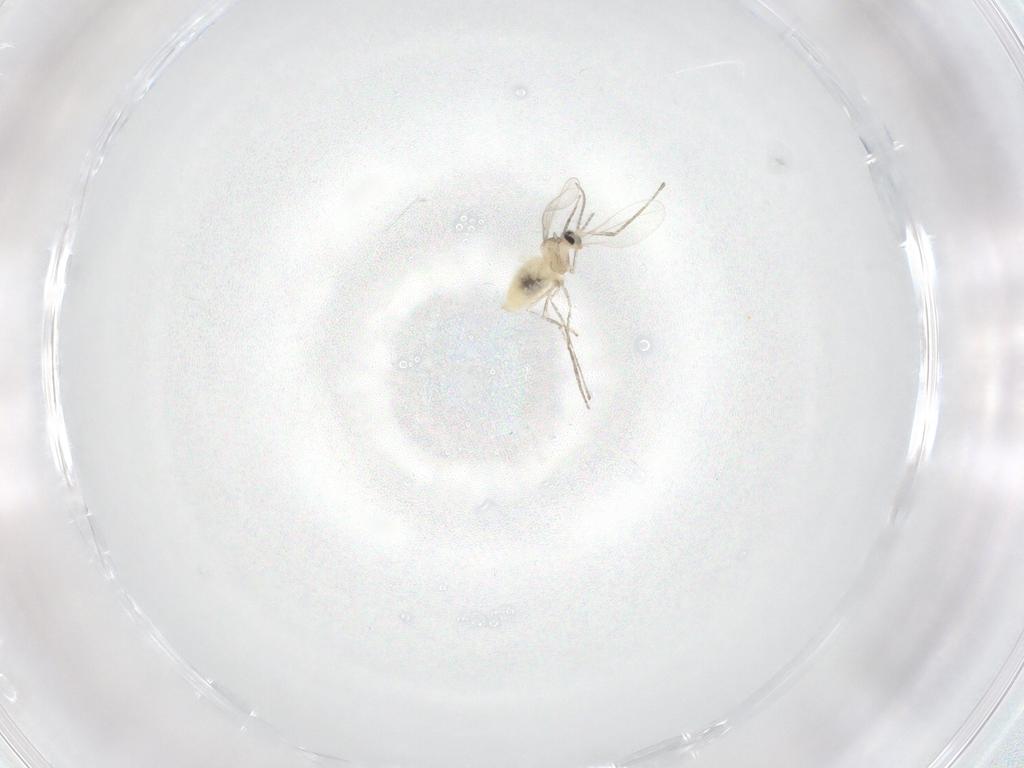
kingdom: Animalia
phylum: Arthropoda
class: Insecta
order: Diptera
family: Cecidomyiidae
